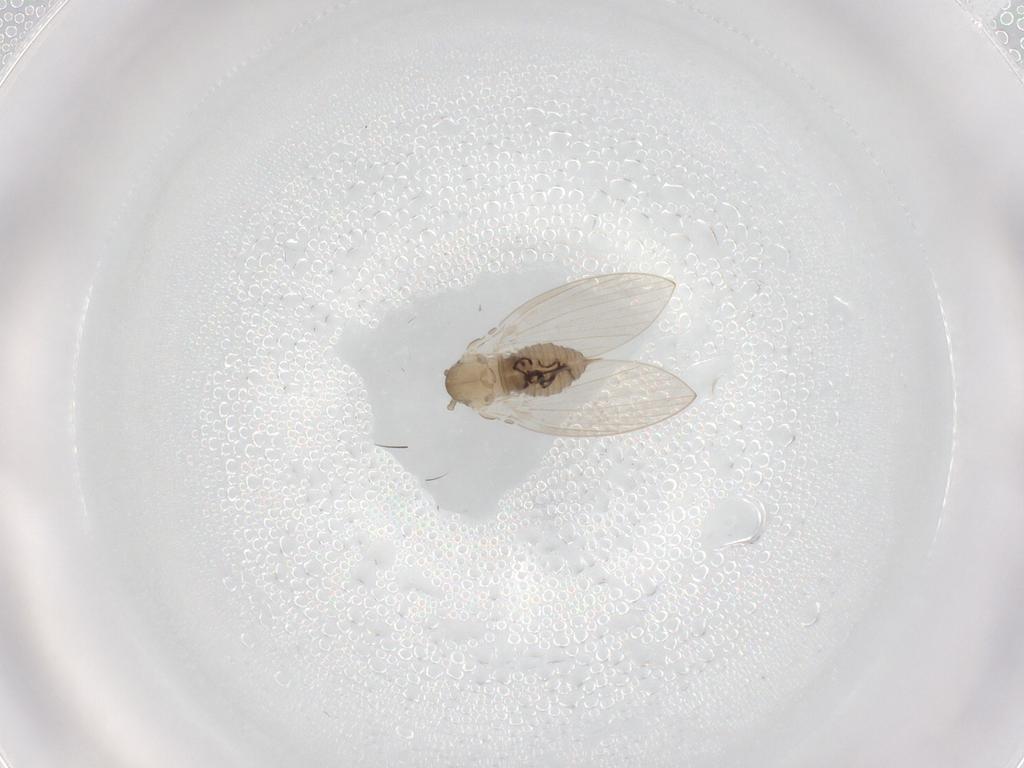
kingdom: Animalia
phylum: Arthropoda
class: Insecta
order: Diptera
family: Psychodidae
